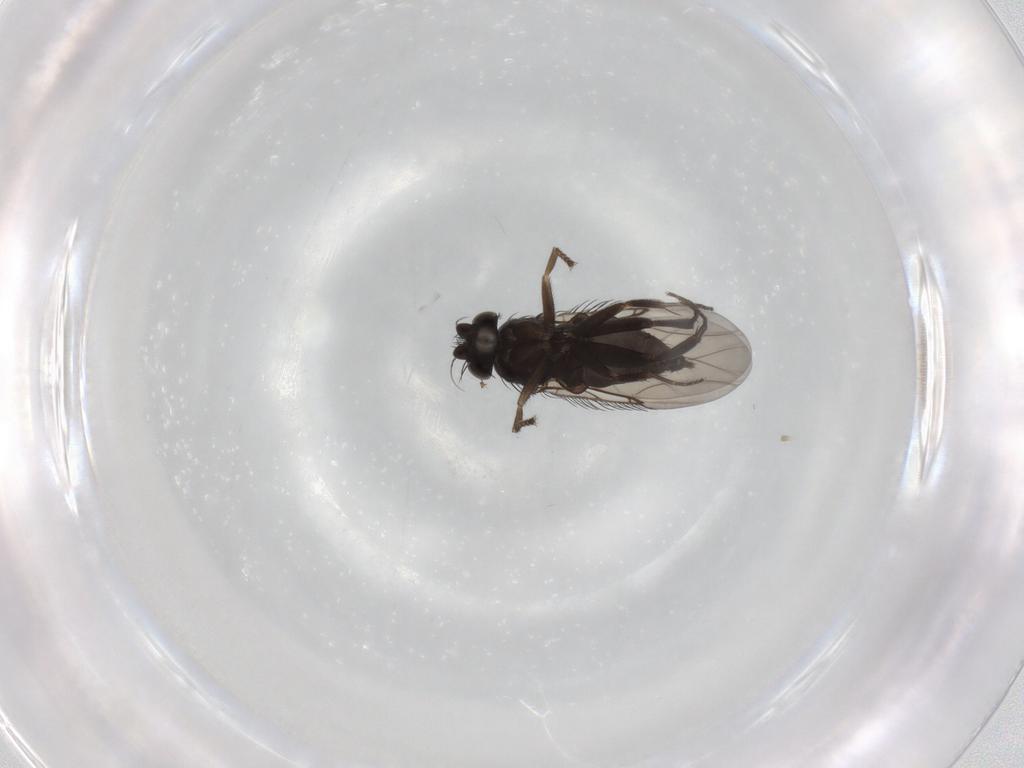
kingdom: Animalia
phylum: Arthropoda
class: Insecta
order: Diptera
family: Phoridae
